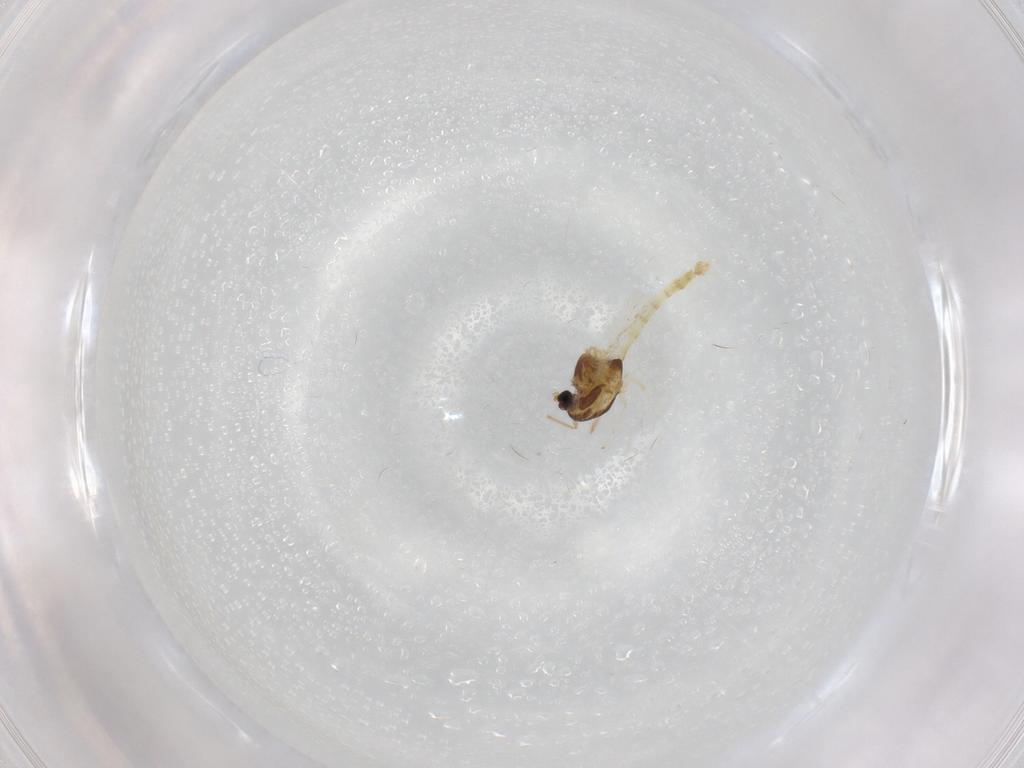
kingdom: Animalia
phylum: Arthropoda
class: Insecta
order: Diptera
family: Chironomidae
